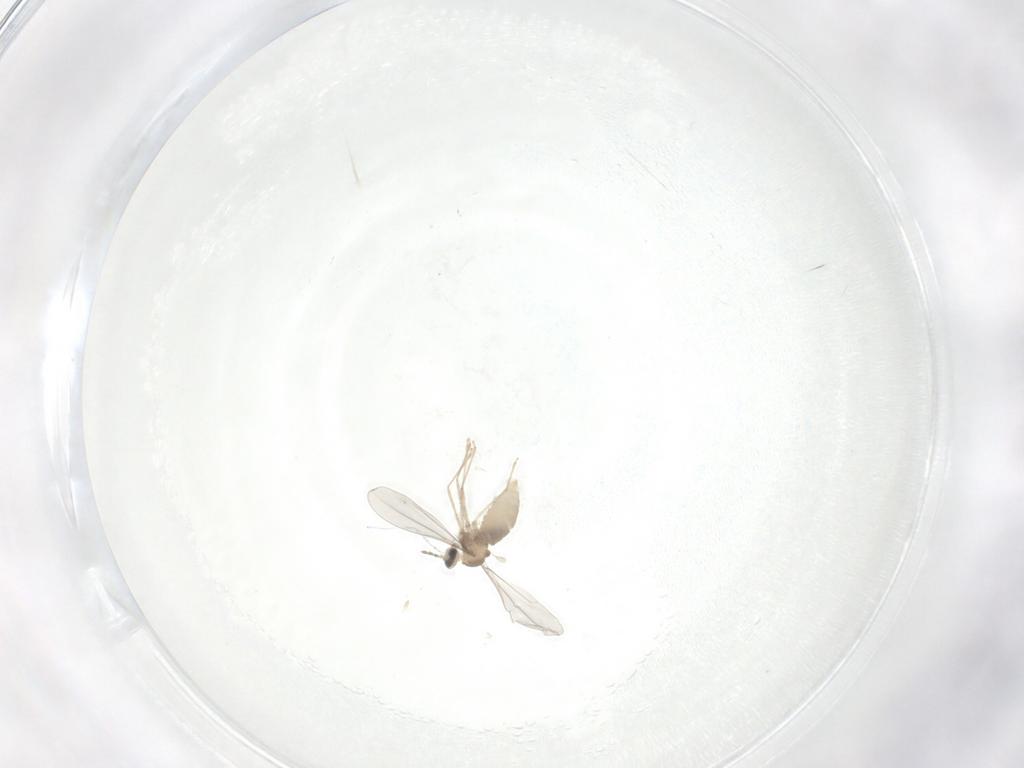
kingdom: Animalia
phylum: Arthropoda
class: Insecta
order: Diptera
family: Cecidomyiidae
